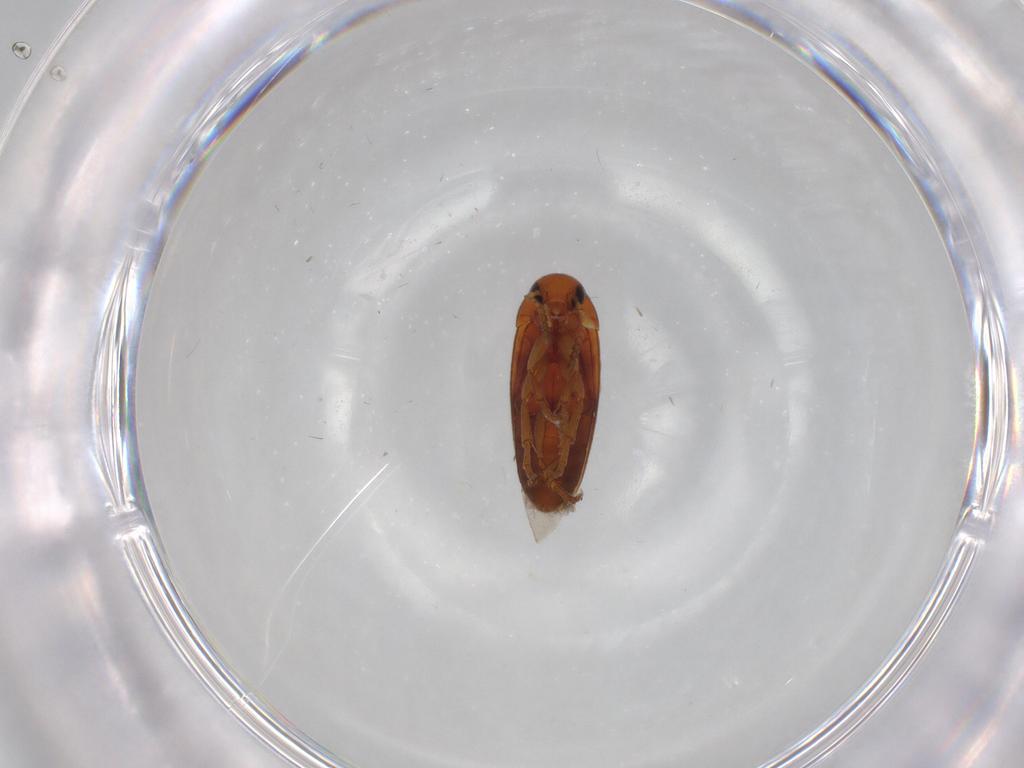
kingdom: Animalia
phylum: Arthropoda
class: Insecta
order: Coleoptera
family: Scraptiidae
